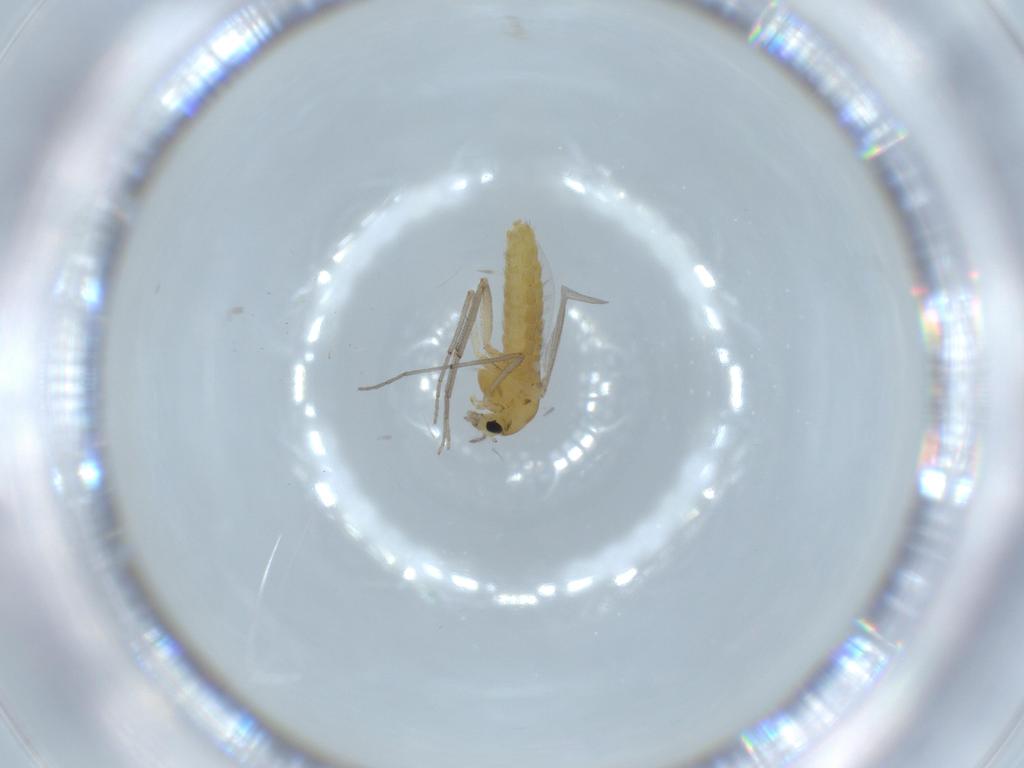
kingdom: Animalia
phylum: Arthropoda
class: Insecta
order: Diptera
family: Chironomidae
